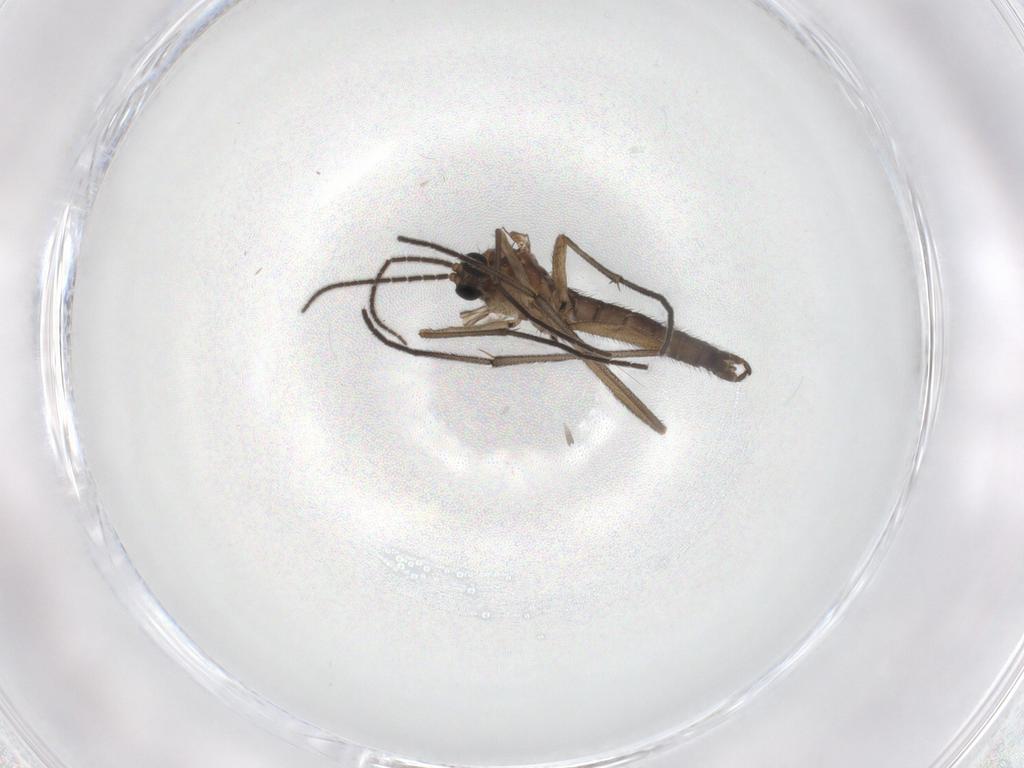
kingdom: Animalia
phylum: Arthropoda
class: Insecta
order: Diptera
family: Sciaridae
